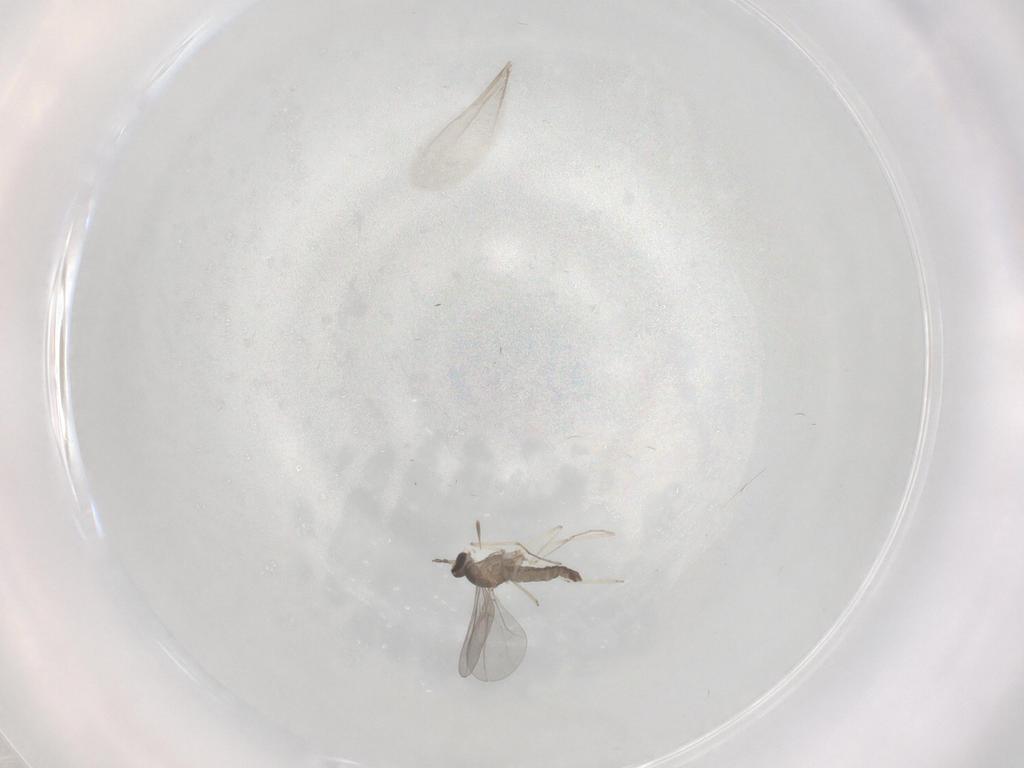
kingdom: Animalia
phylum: Arthropoda
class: Insecta
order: Diptera
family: Cecidomyiidae
